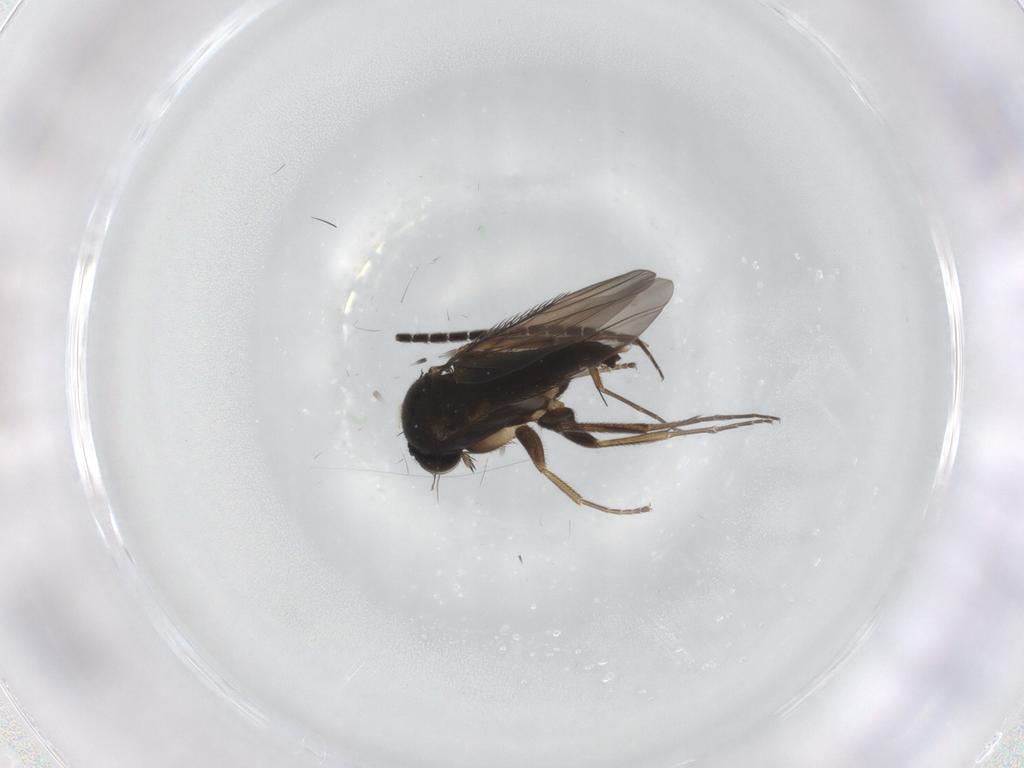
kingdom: Animalia
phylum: Arthropoda
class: Insecta
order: Diptera
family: Phoridae
